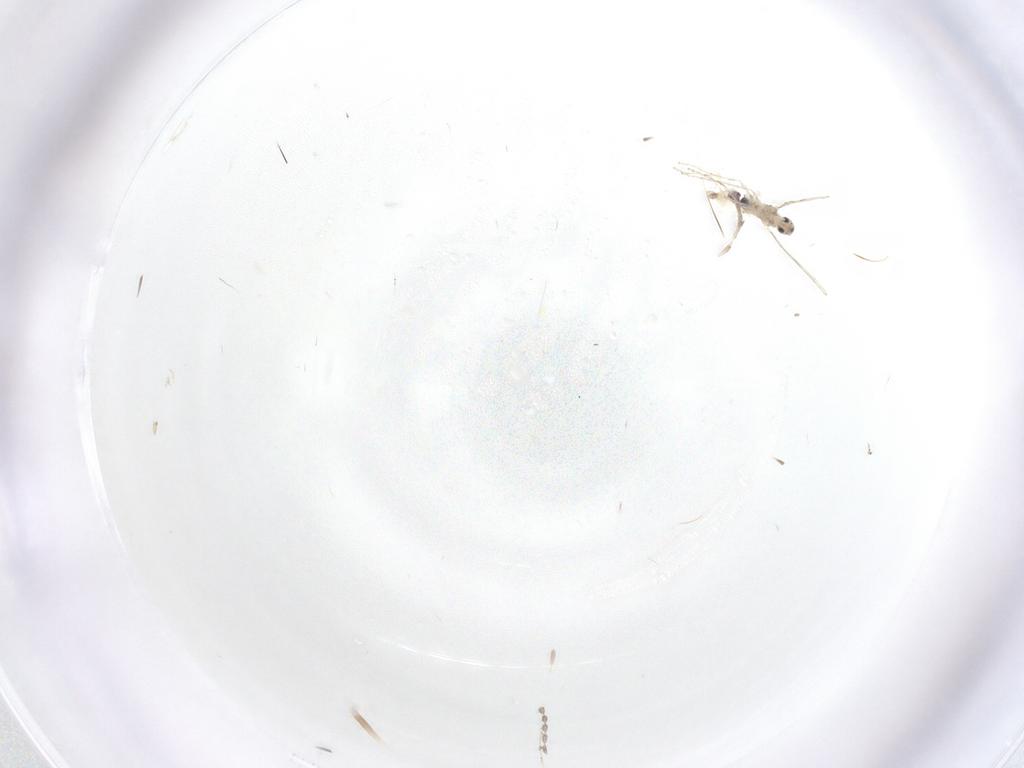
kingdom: Animalia
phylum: Arthropoda
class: Insecta
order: Diptera
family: Cecidomyiidae
